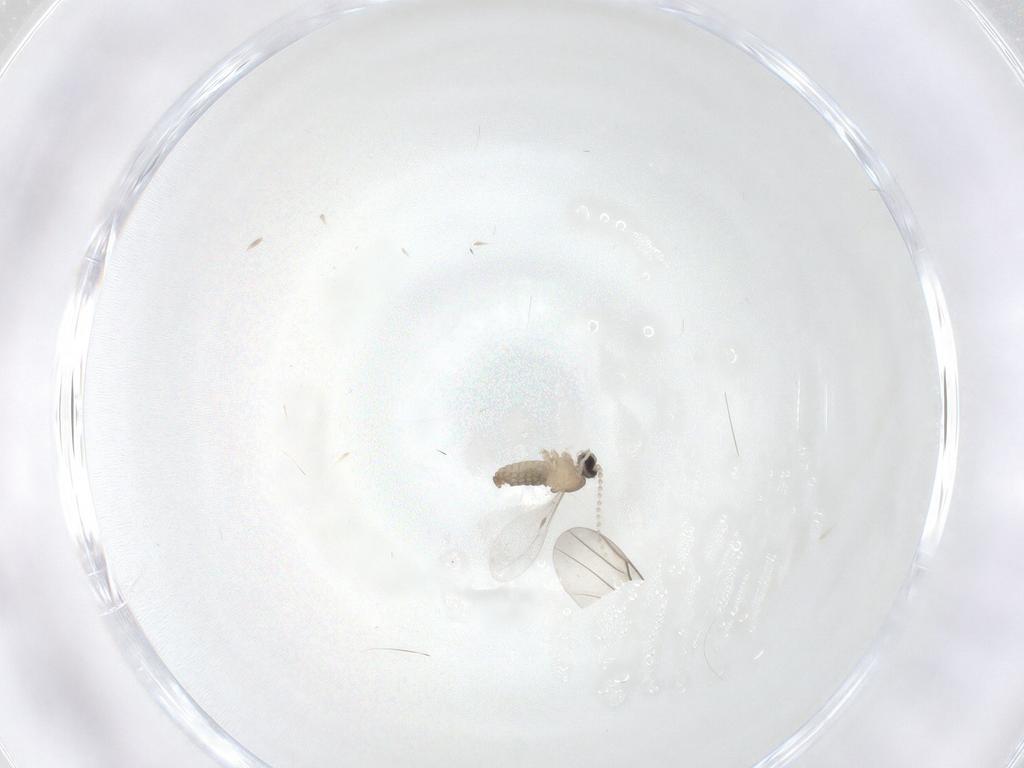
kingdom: Animalia
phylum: Arthropoda
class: Insecta
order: Diptera
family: Cecidomyiidae
